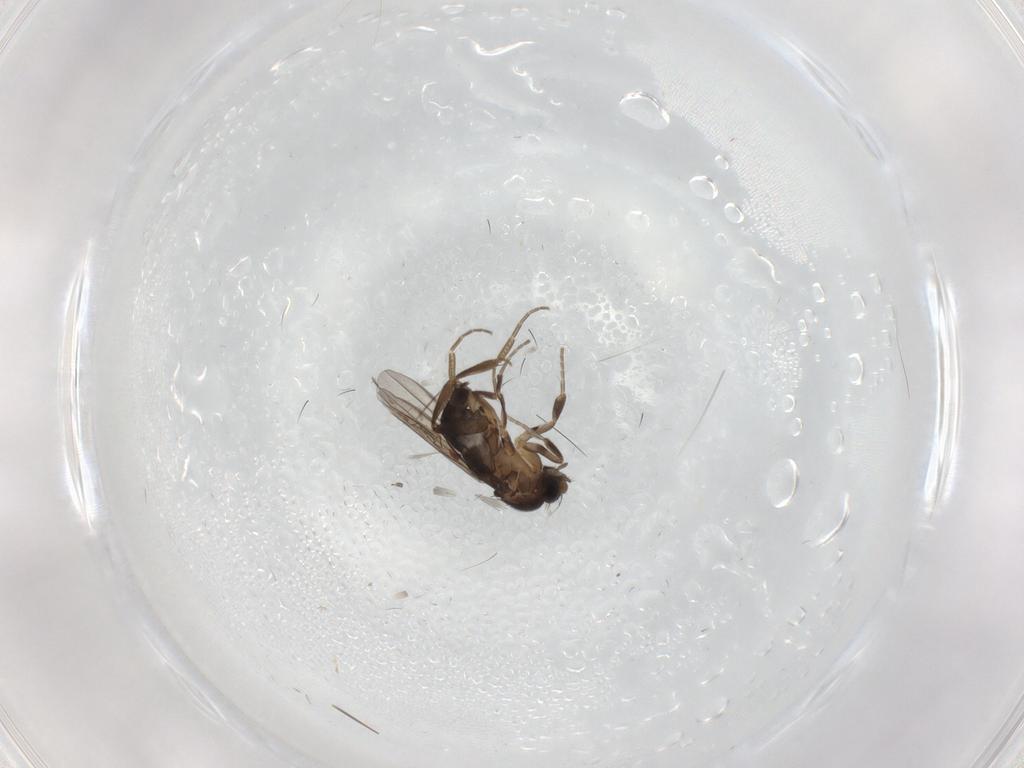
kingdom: Animalia
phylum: Arthropoda
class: Insecta
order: Diptera
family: Phoridae
